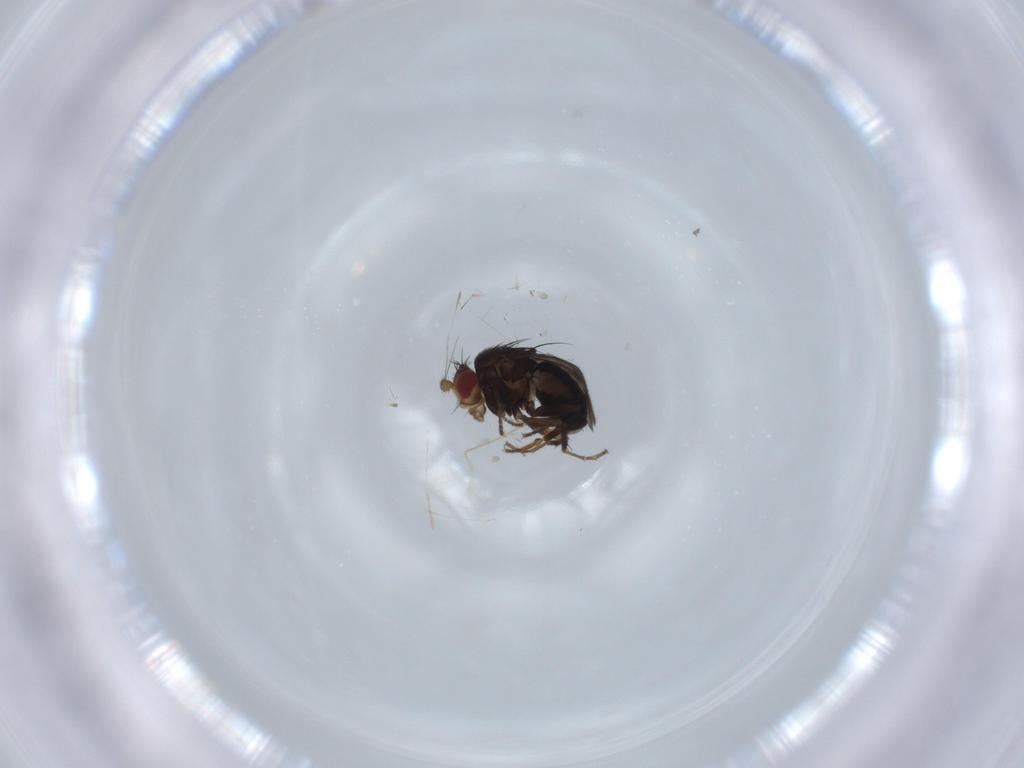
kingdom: Animalia
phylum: Arthropoda
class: Insecta
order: Diptera
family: Sphaeroceridae
